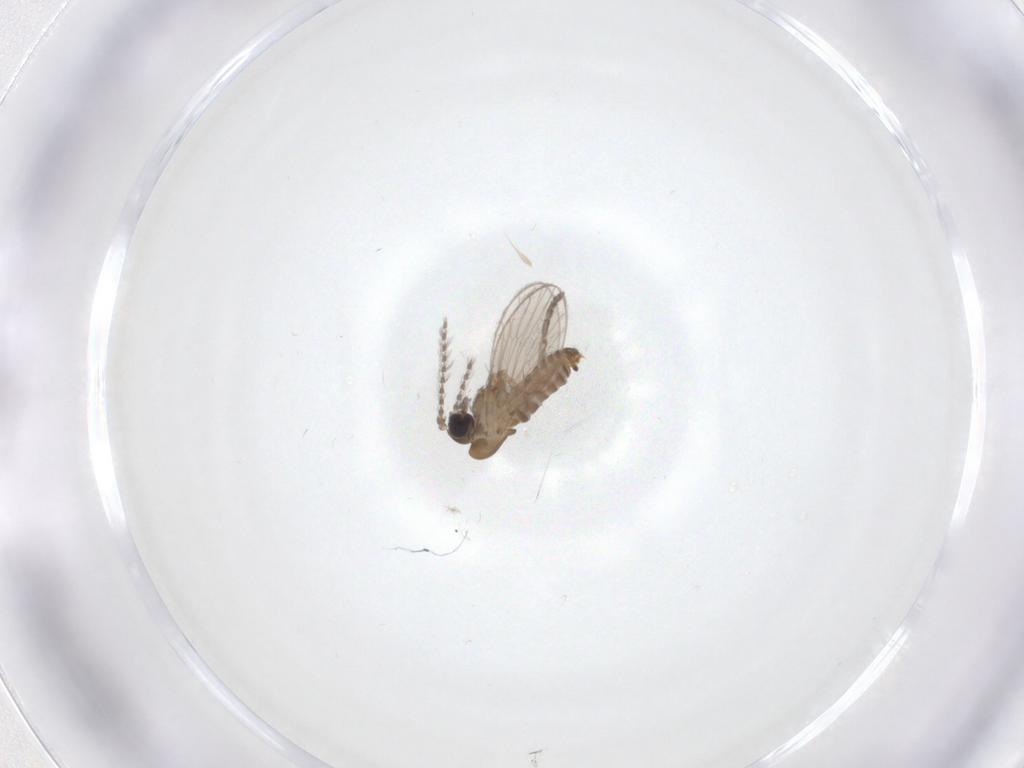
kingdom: Animalia
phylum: Arthropoda
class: Insecta
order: Diptera
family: Psychodidae
